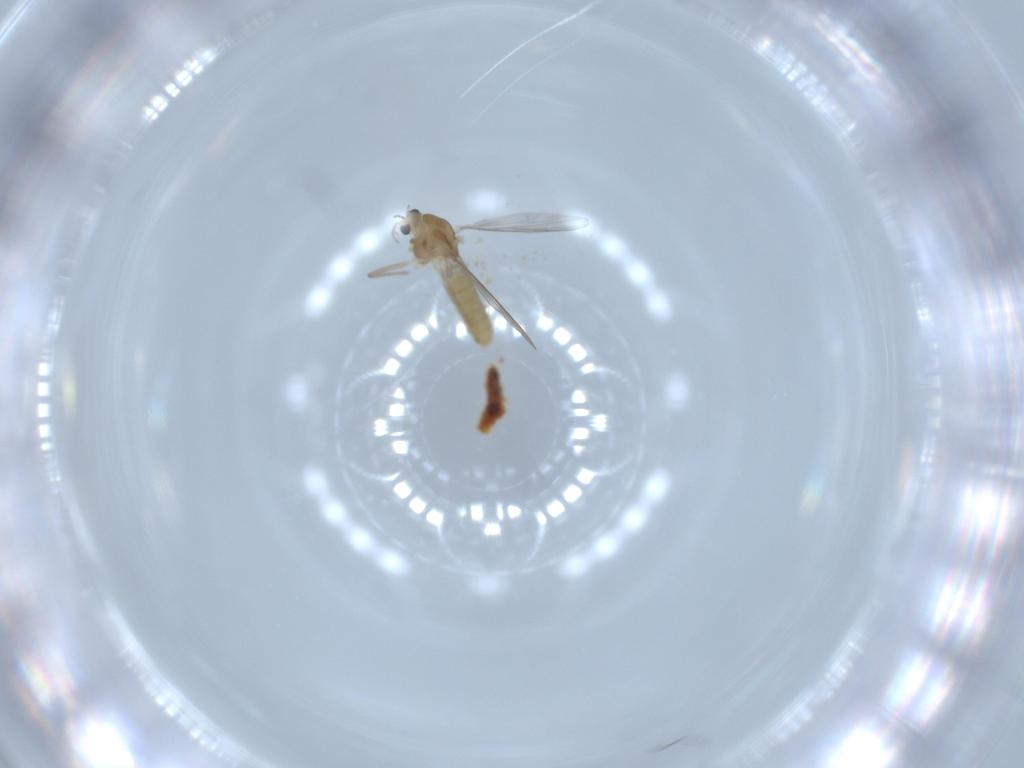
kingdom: Animalia
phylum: Arthropoda
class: Insecta
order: Diptera
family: Chironomidae
